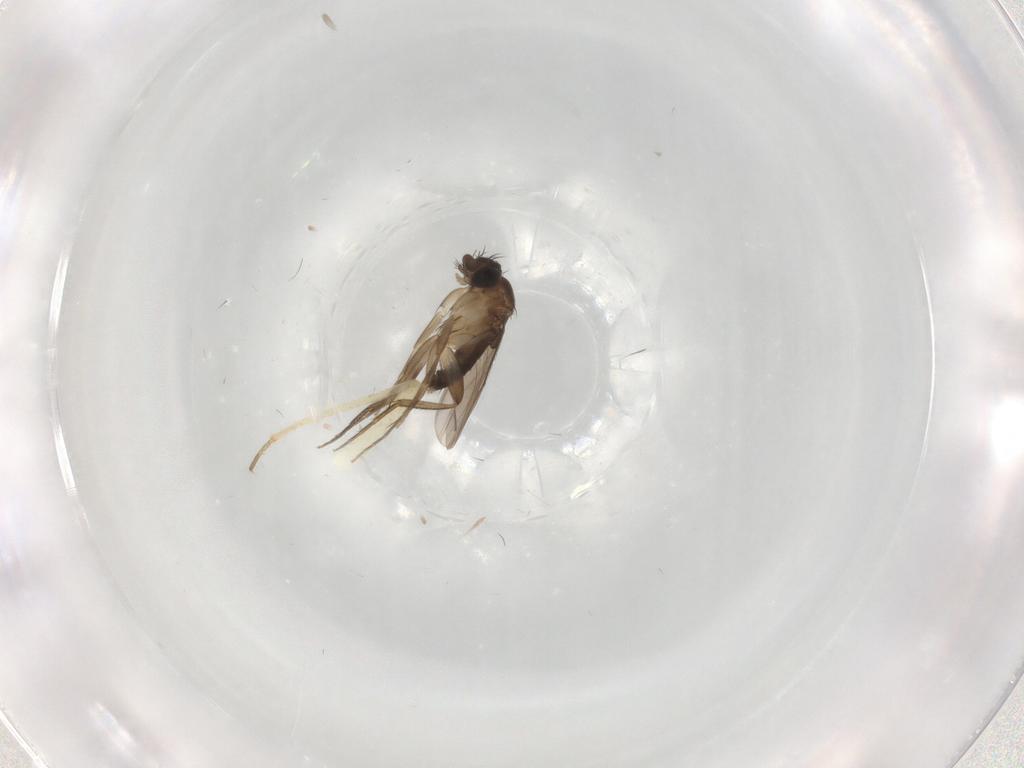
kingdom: Animalia
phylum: Arthropoda
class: Insecta
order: Diptera
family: Phoridae
